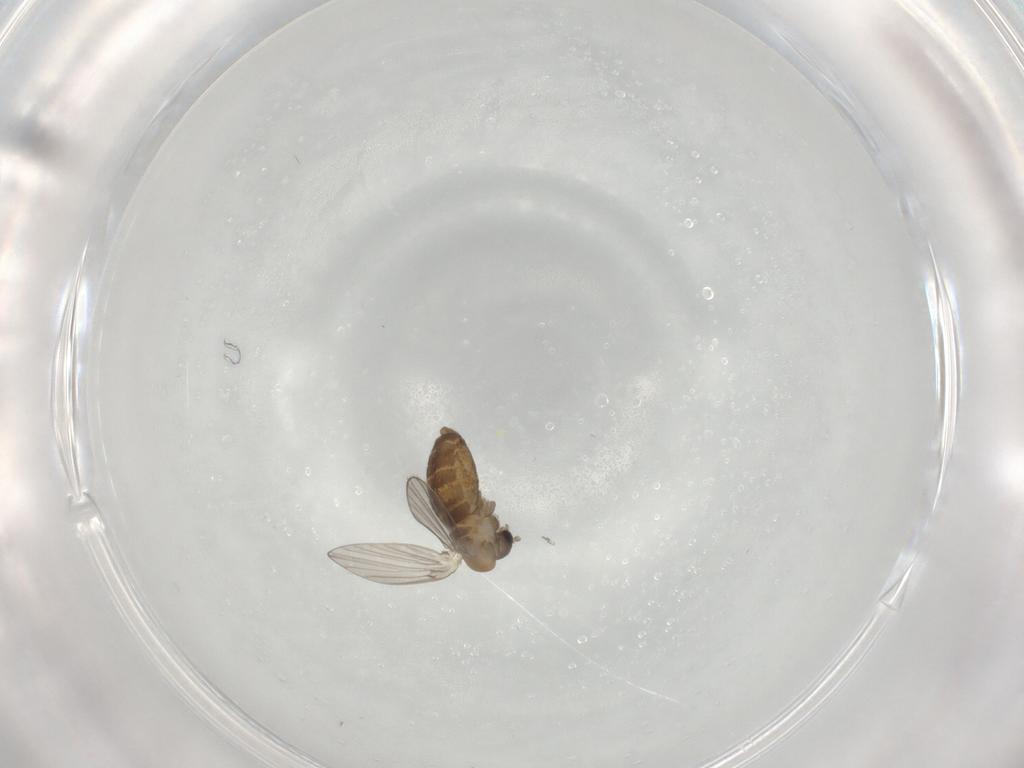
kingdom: Animalia
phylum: Arthropoda
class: Insecta
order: Diptera
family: Psychodidae
